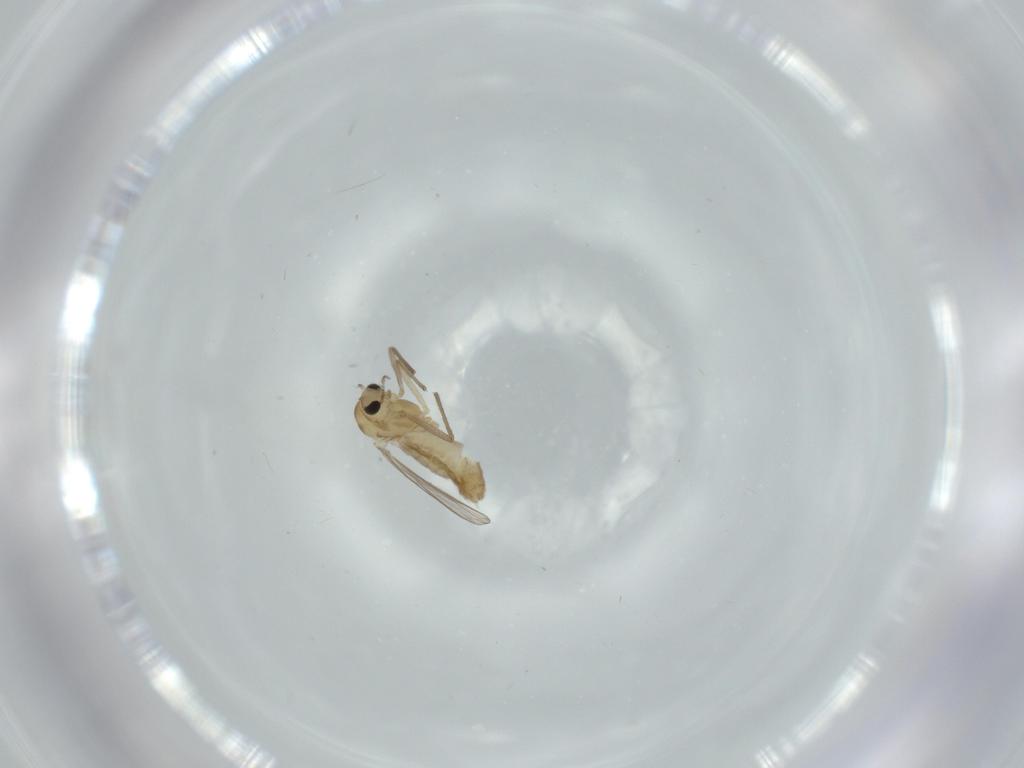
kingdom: Animalia
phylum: Arthropoda
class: Insecta
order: Diptera
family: Chironomidae
